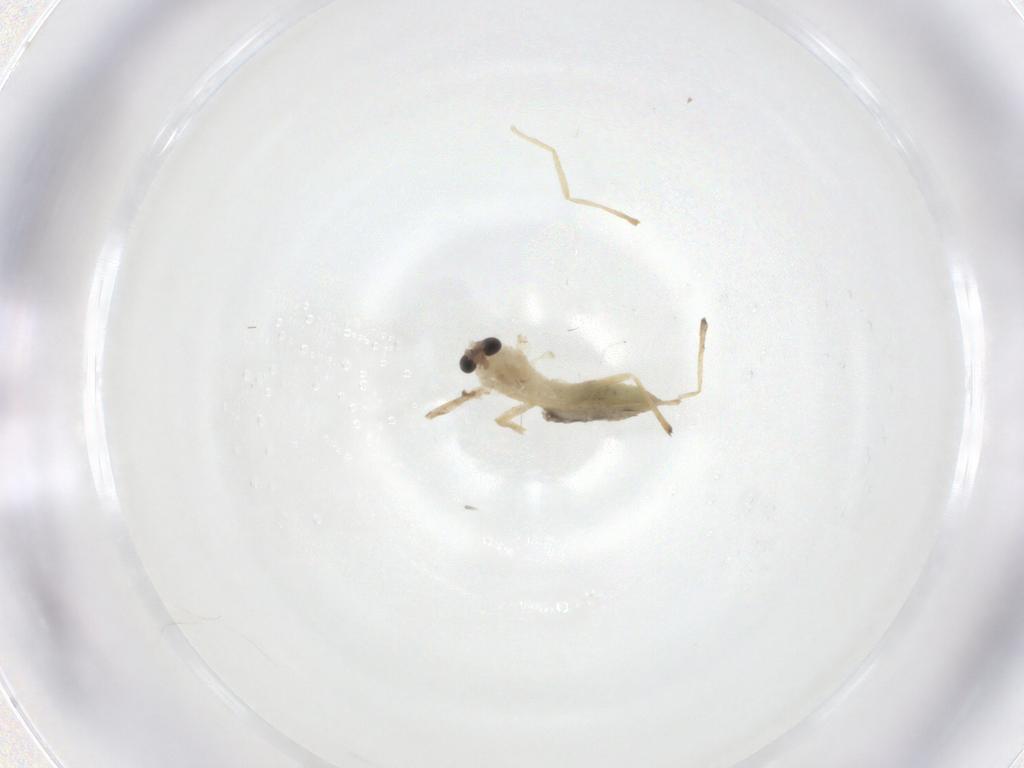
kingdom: Animalia
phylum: Arthropoda
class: Insecta
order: Diptera
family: Chironomidae
